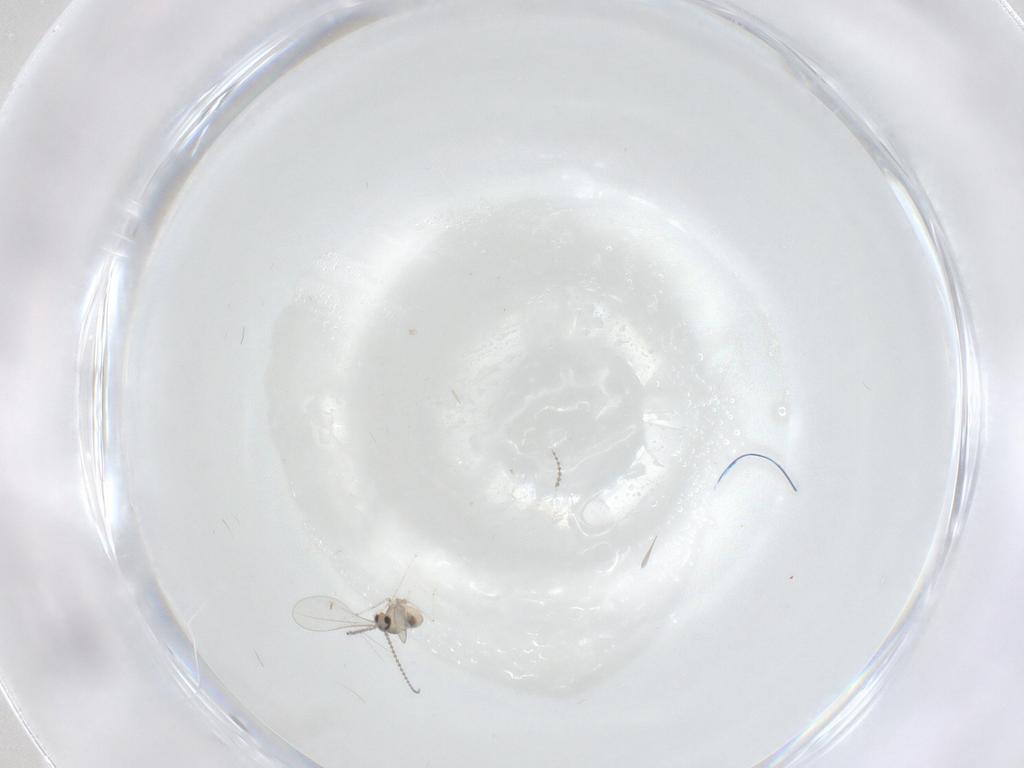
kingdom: Animalia
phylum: Arthropoda
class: Insecta
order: Diptera
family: Cecidomyiidae
